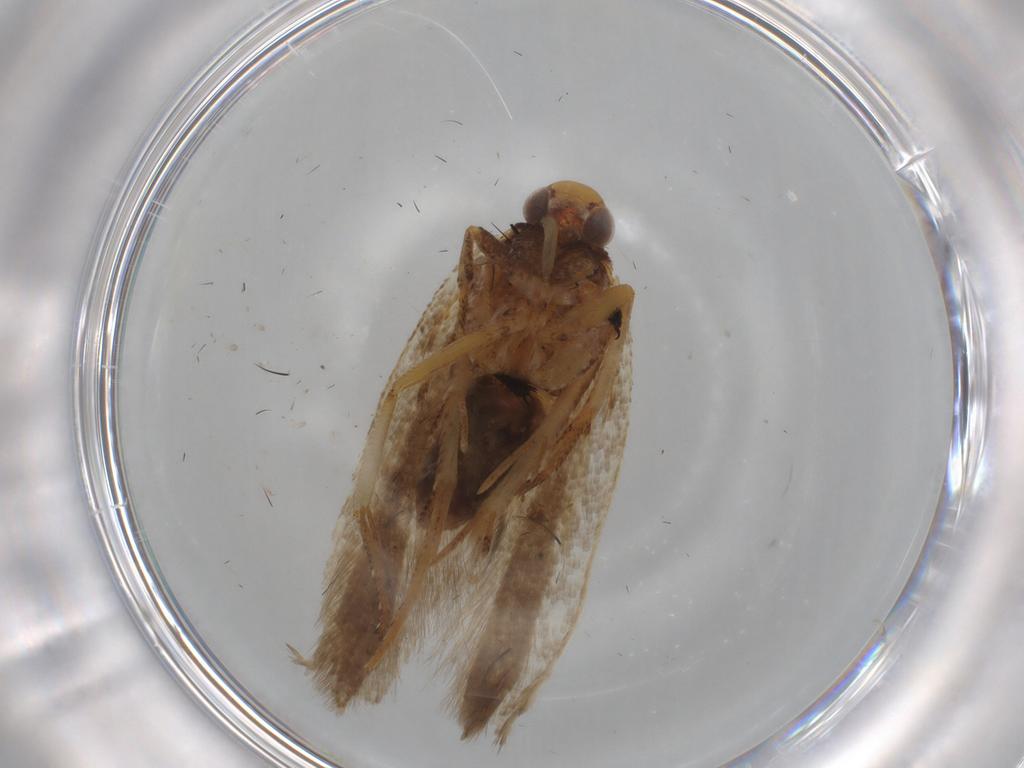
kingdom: Animalia
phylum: Arthropoda
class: Insecta
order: Lepidoptera
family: Gelechiidae
